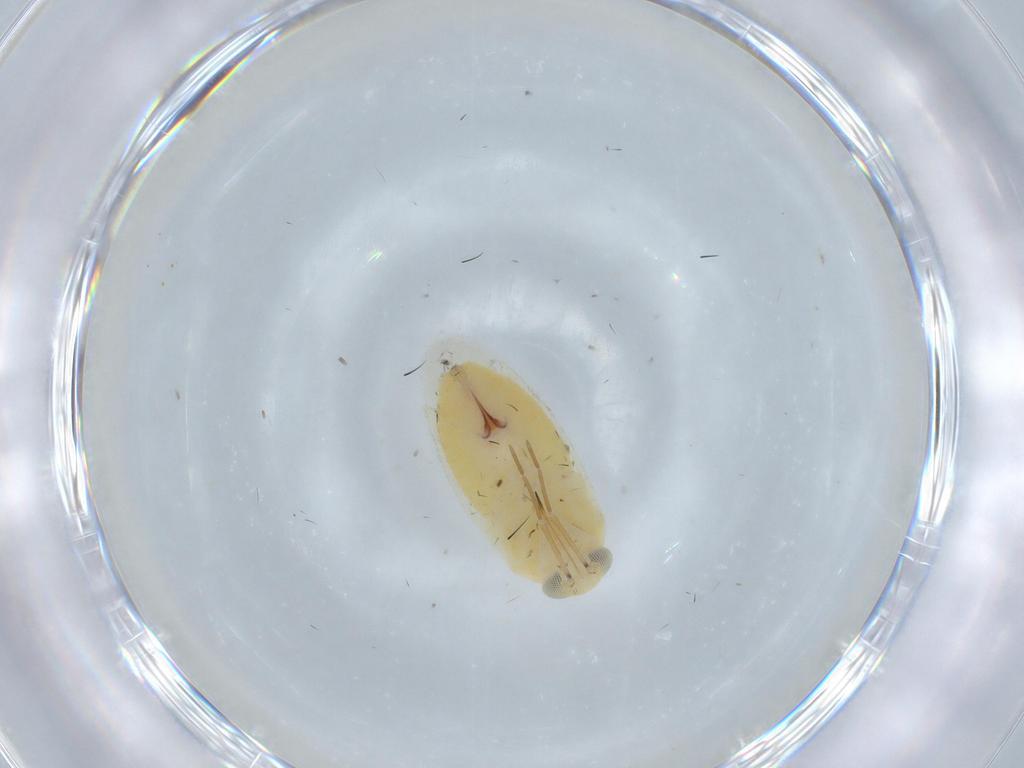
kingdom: Animalia
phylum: Arthropoda
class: Insecta
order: Hemiptera
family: Miridae
